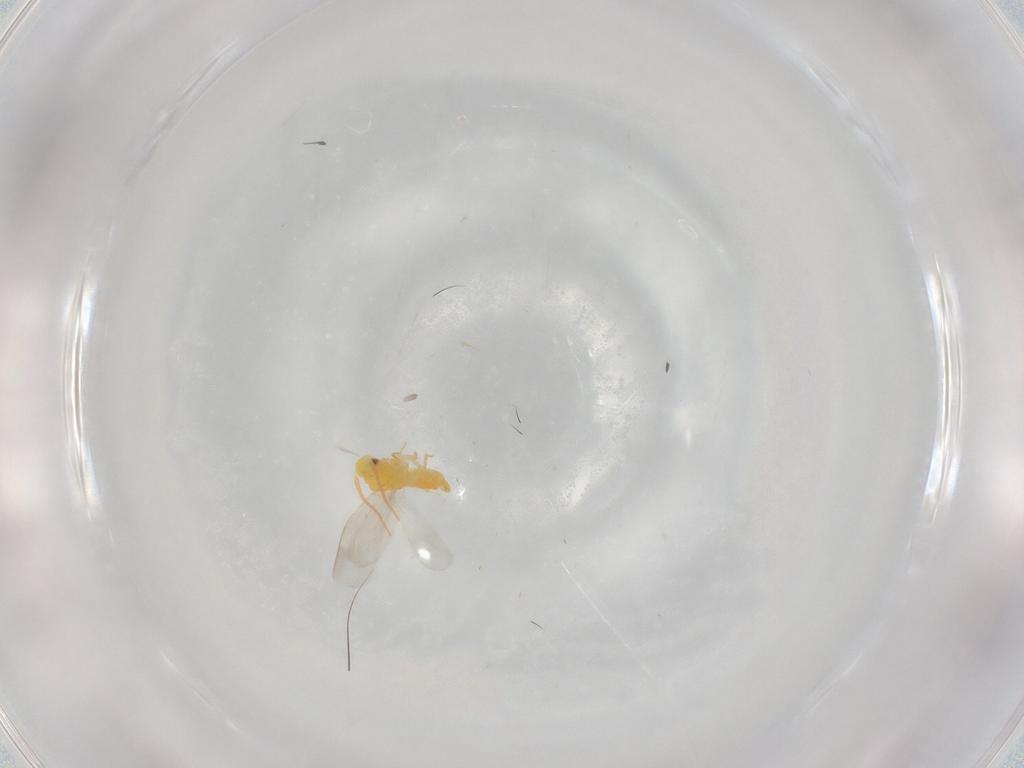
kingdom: Animalia
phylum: Arthropoda
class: Insecta
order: Hemiptera
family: Aleyrodidae
